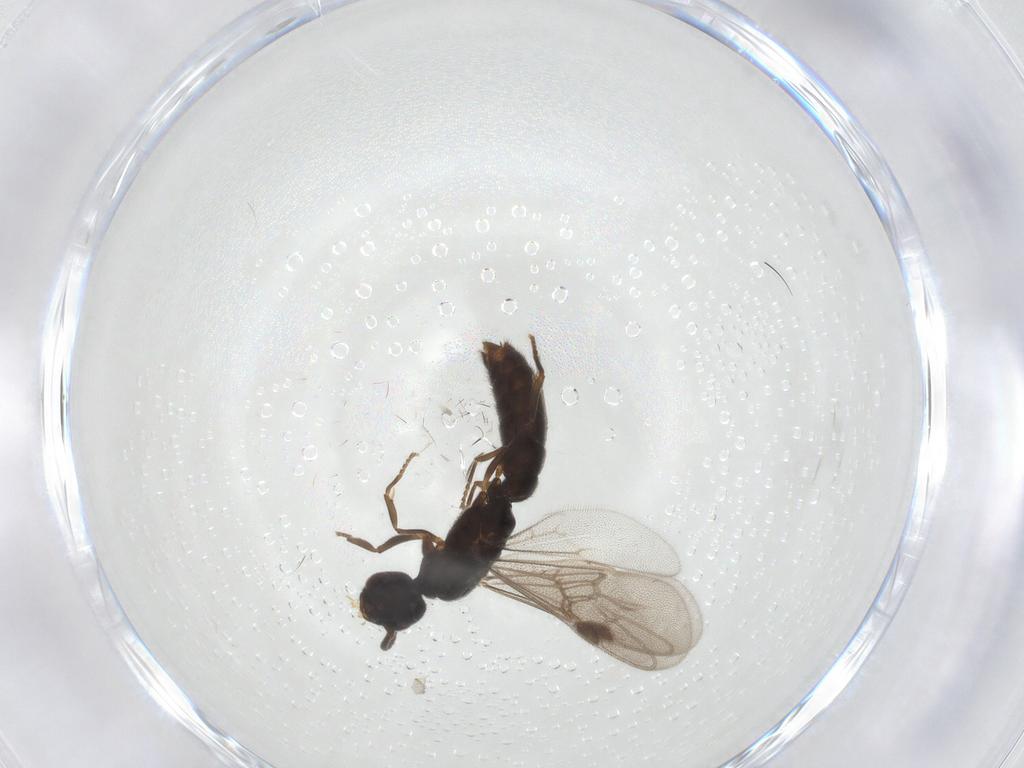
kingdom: Animalia
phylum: Arthropoda
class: Insecta
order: Hymenoptera
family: Formicidae
